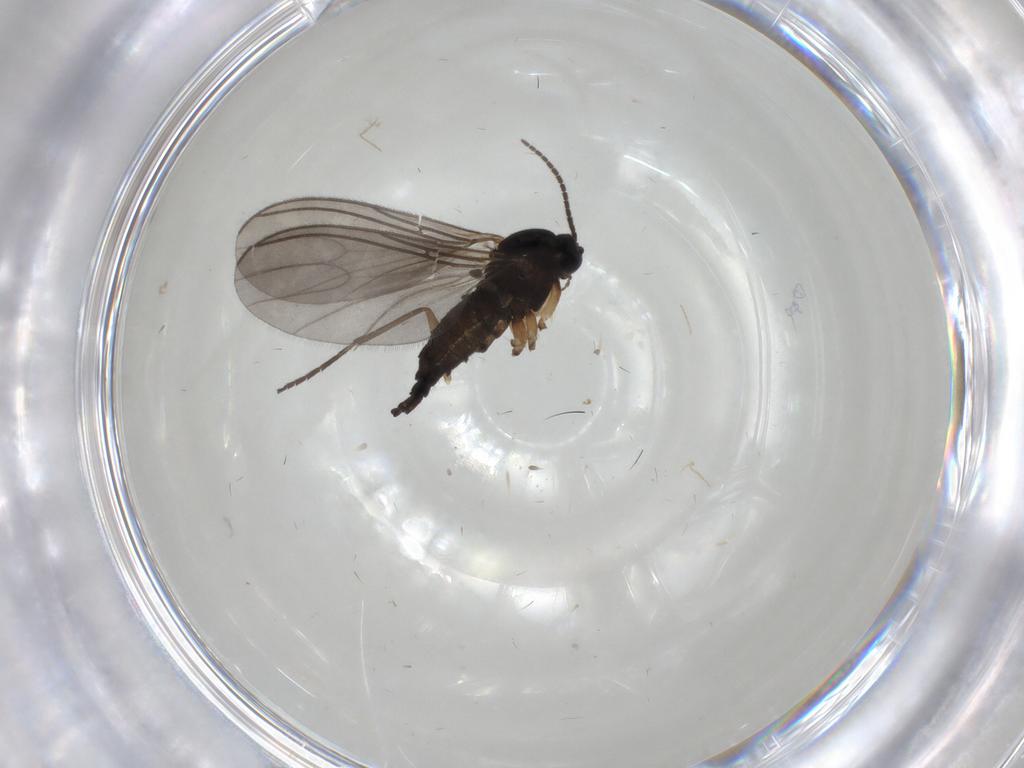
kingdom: Animalia
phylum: Arthropoda
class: Insecta
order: Diptera
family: Sciaridae
